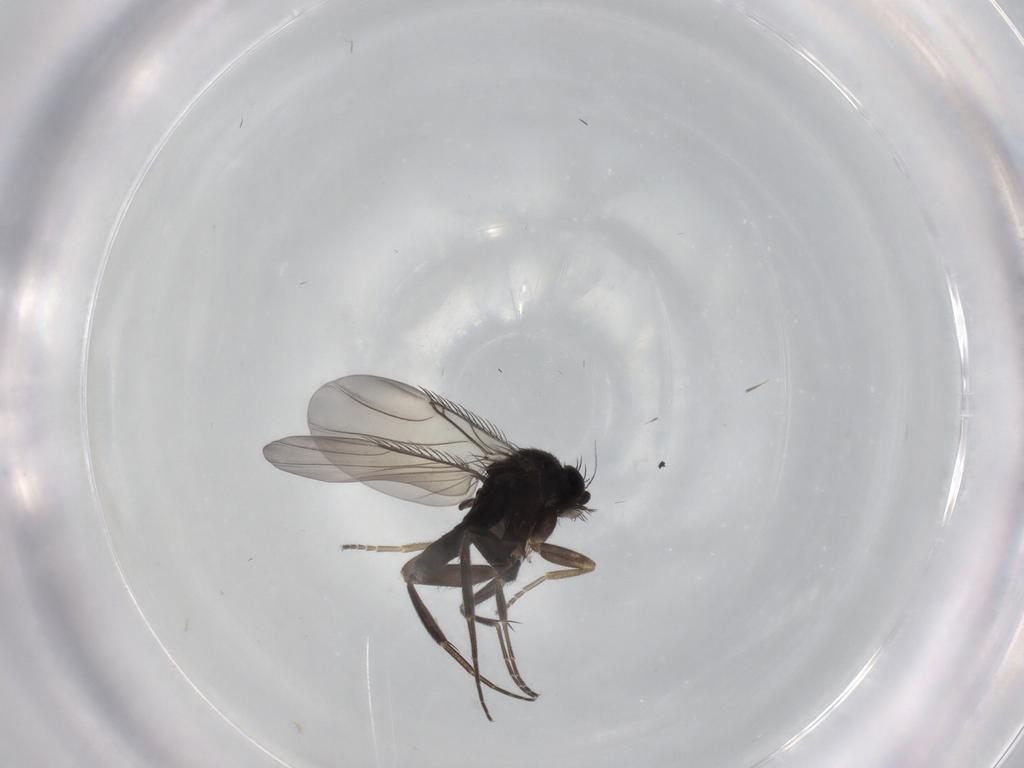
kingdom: Animalia
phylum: Arthropoda
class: Insecta
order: Diptera
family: Phoridae
